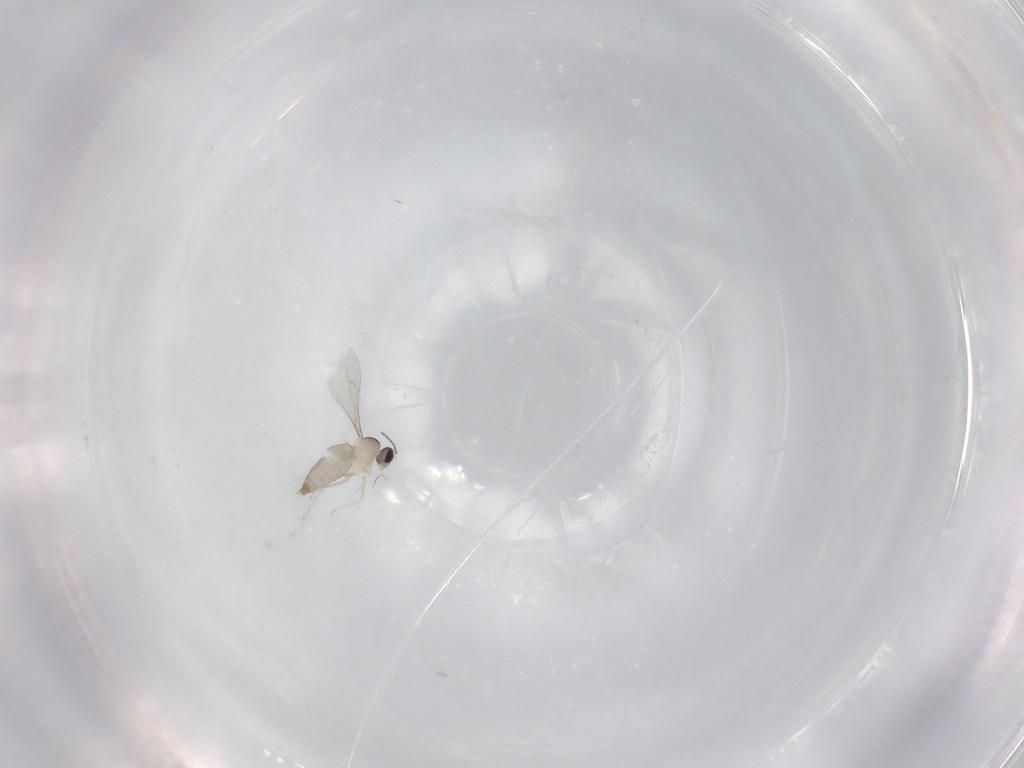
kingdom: Animalia
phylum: Arthropoda
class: Insecta
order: Diptera
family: Cecidomyiidae
